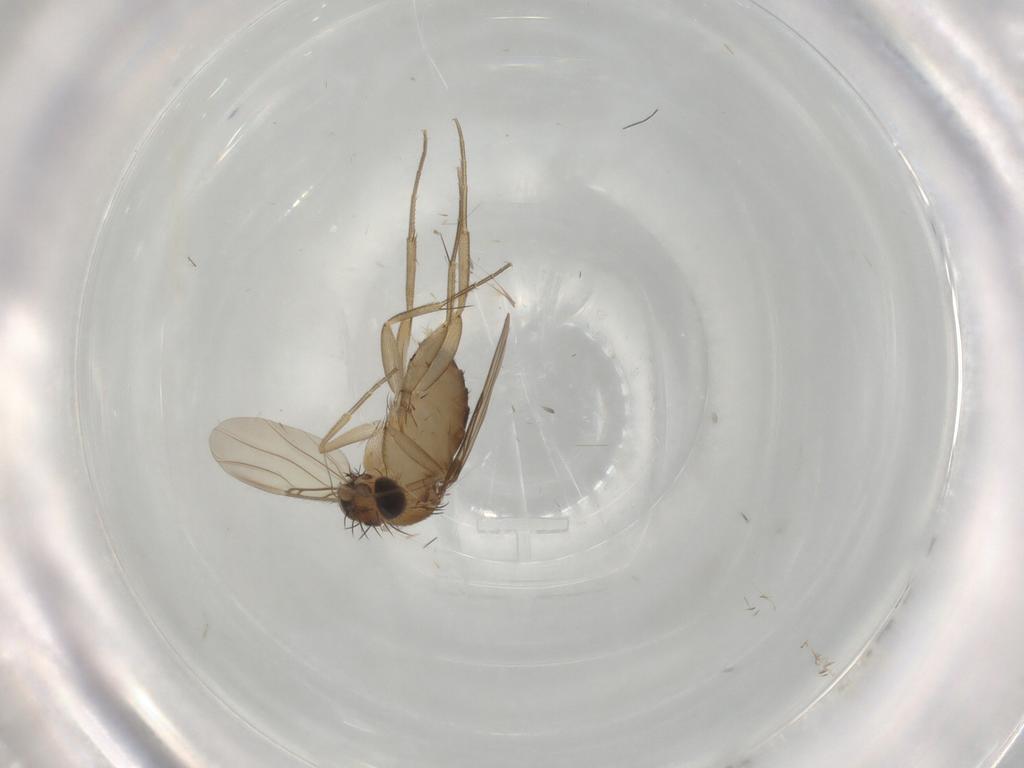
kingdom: Animalia
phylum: Arthropoda
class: Insecta
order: Diptera
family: Phoridae
